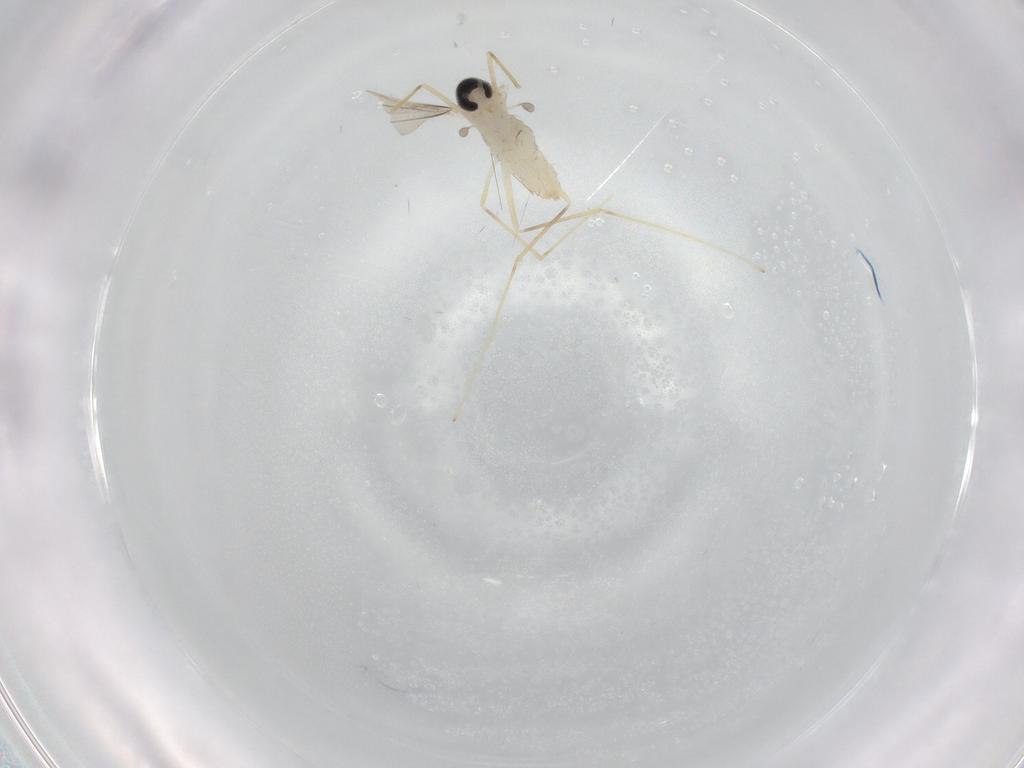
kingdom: Animalia
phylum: Arthropoda
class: Insecta
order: Diptera
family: Cecidomyiidae
